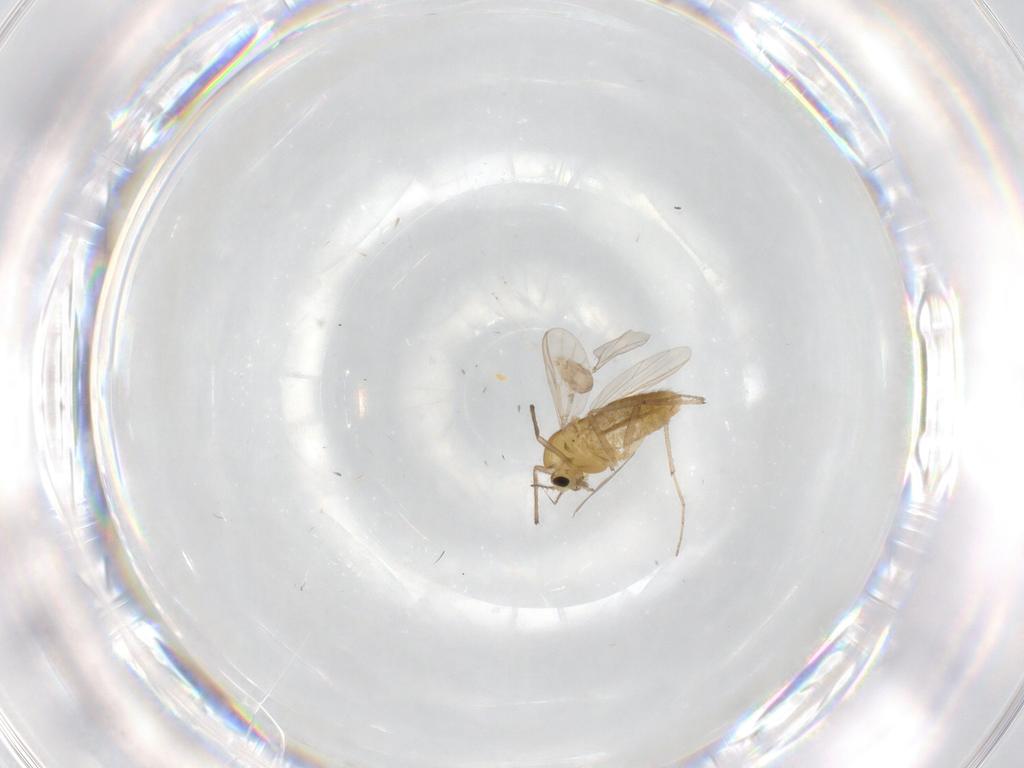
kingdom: Animalia
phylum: Arthropoda
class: Insecta
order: Diptera
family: Chironomidae
